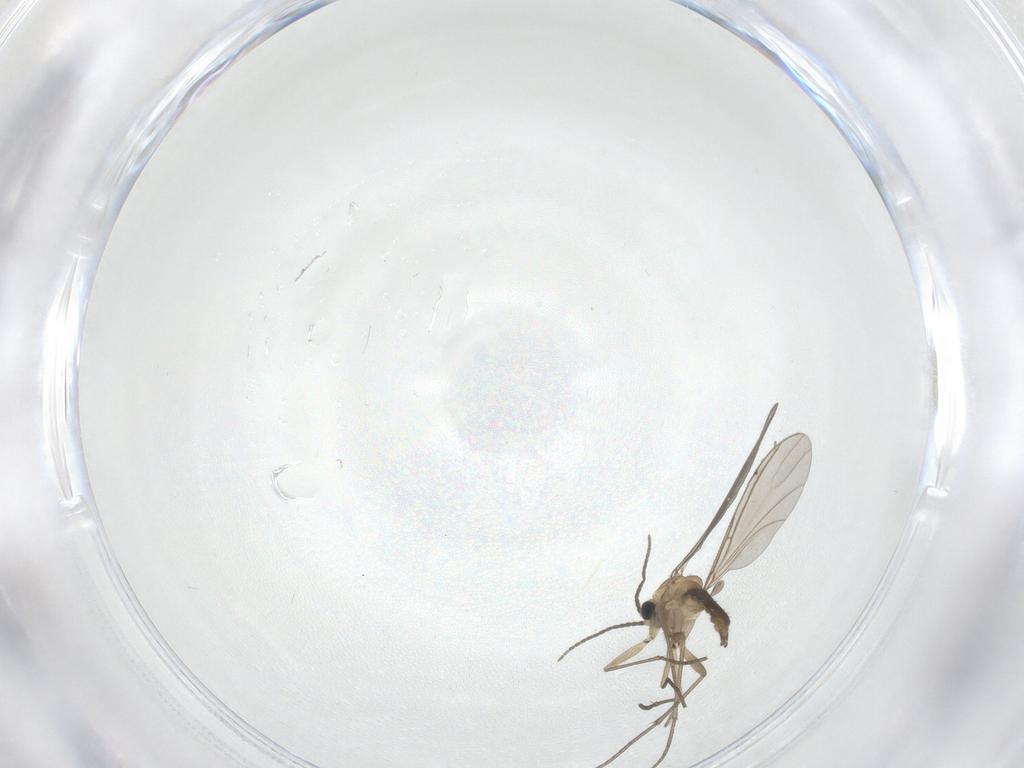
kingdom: Animalia
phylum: Arthropoda
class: Insecta
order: Diptera
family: Sciaridae
